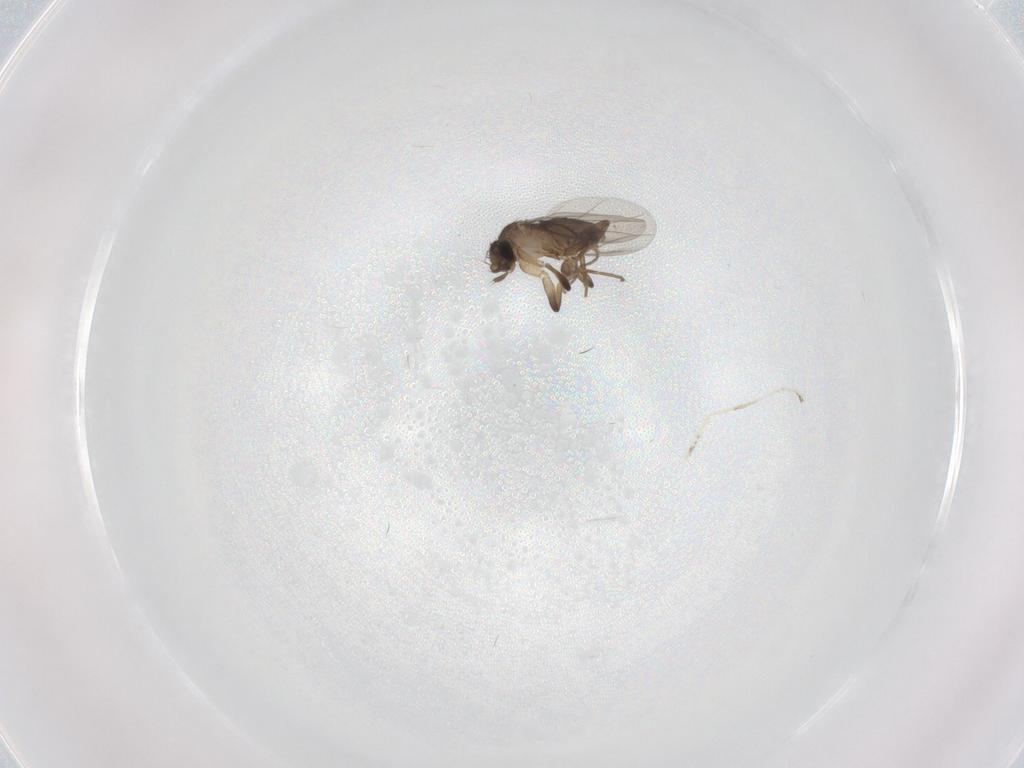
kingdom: Animalia
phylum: Arthropoda
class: Insecta
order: Diptera
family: Cecidomyiidae
